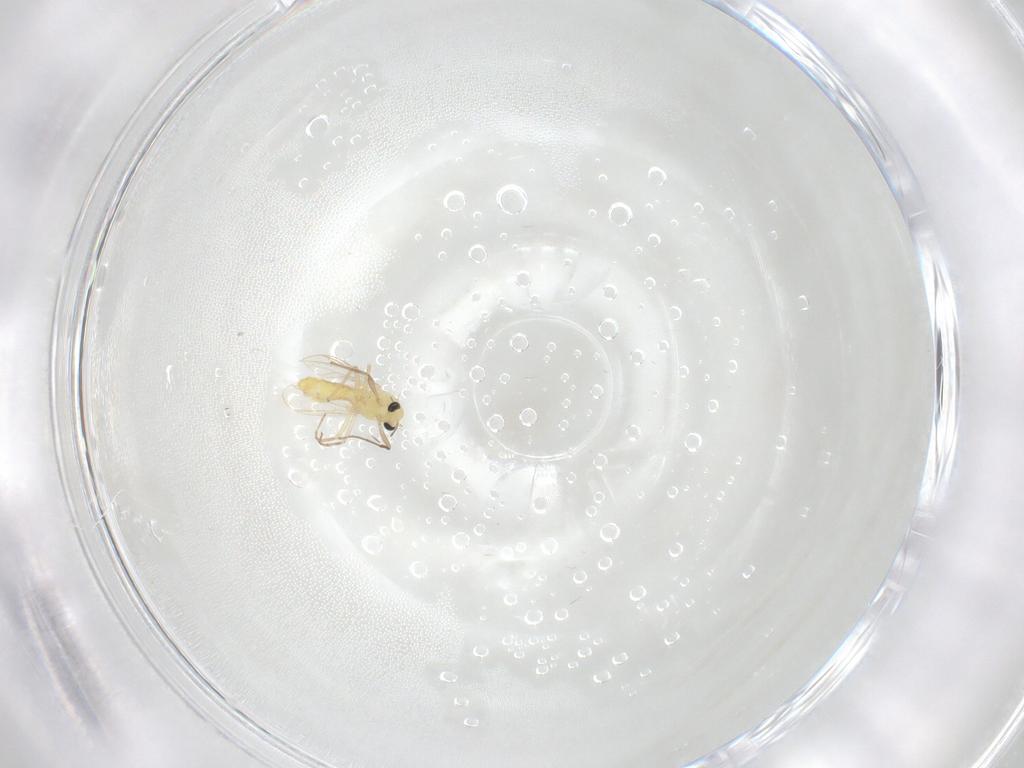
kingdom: Animalia
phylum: Arthropoda
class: Insecta
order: Diptera
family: Chironomidae
